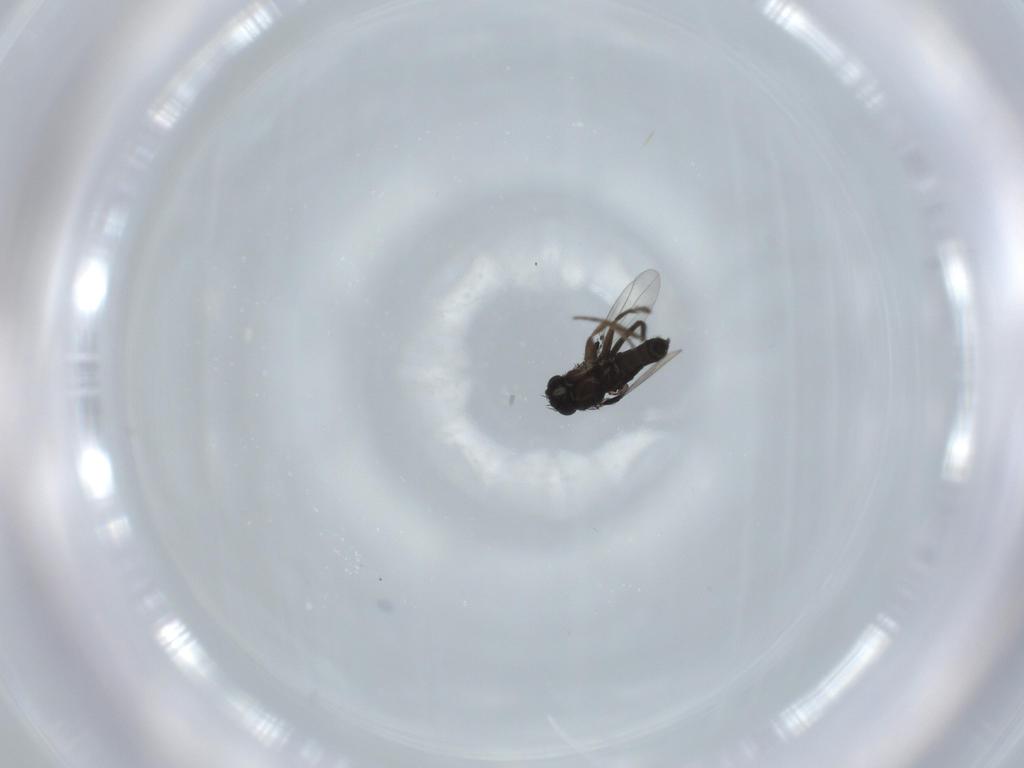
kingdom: Animalia
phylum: Arthropoda
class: Insecta
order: Diptera
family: Phoridae
